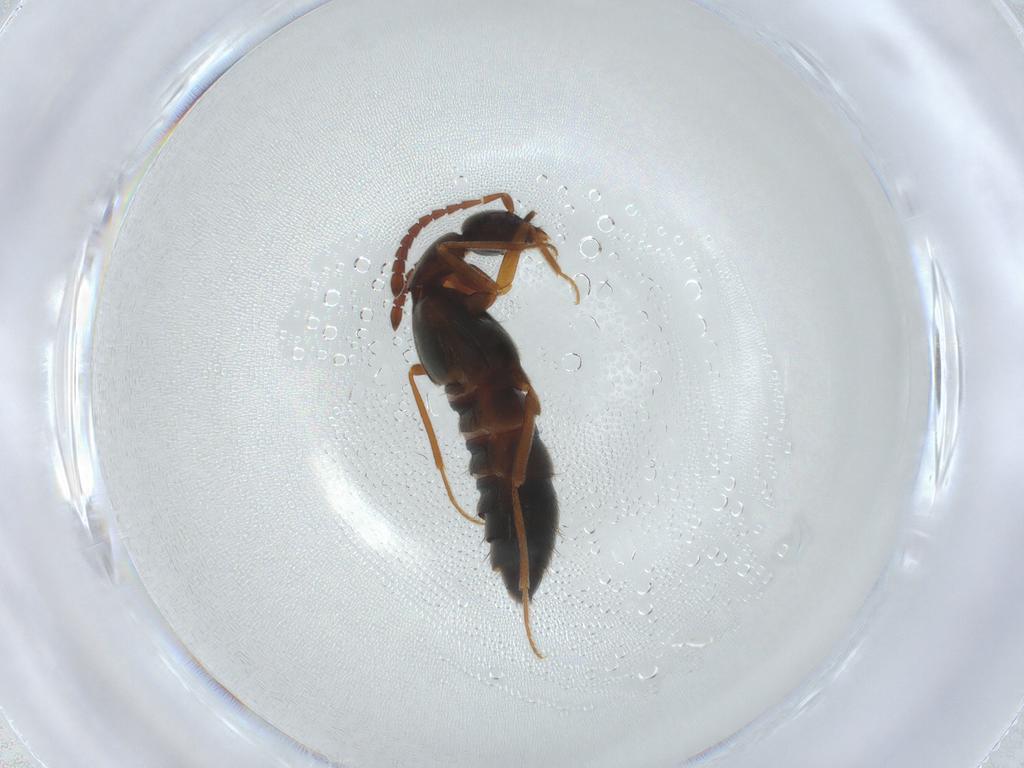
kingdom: Animalia
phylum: Arthropoda
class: Insecta
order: Coleoptera
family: Staphylinidae
